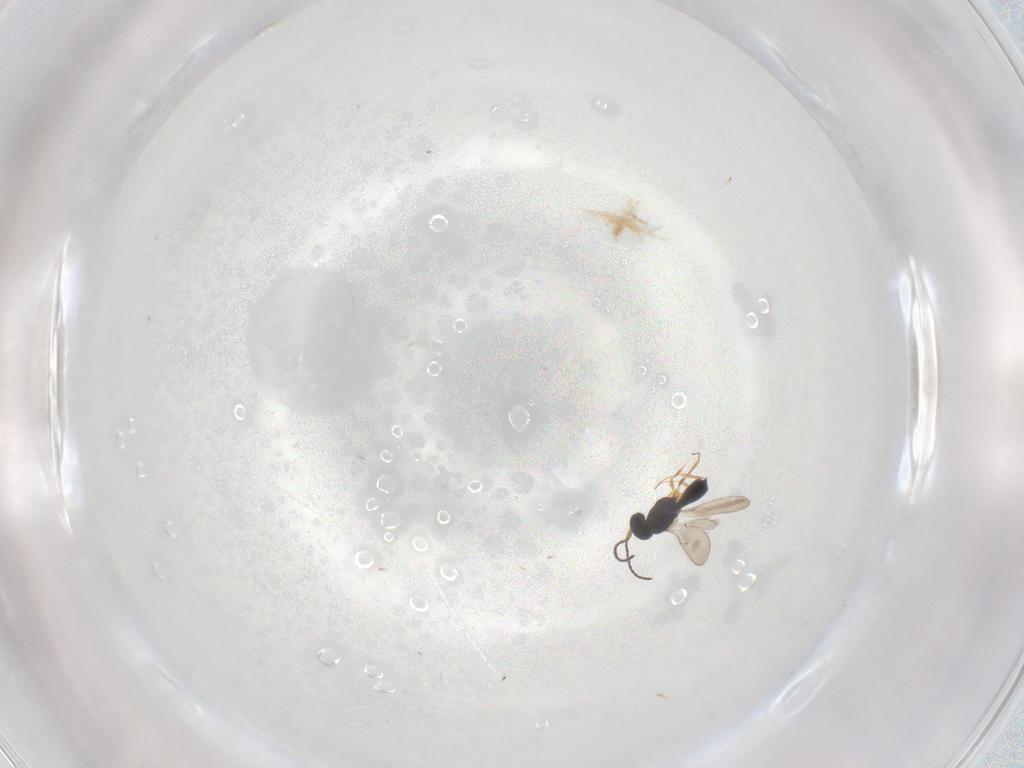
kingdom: Animalia
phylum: Arthropoda
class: Insecta
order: Hymenoptera
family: Scelionidae
